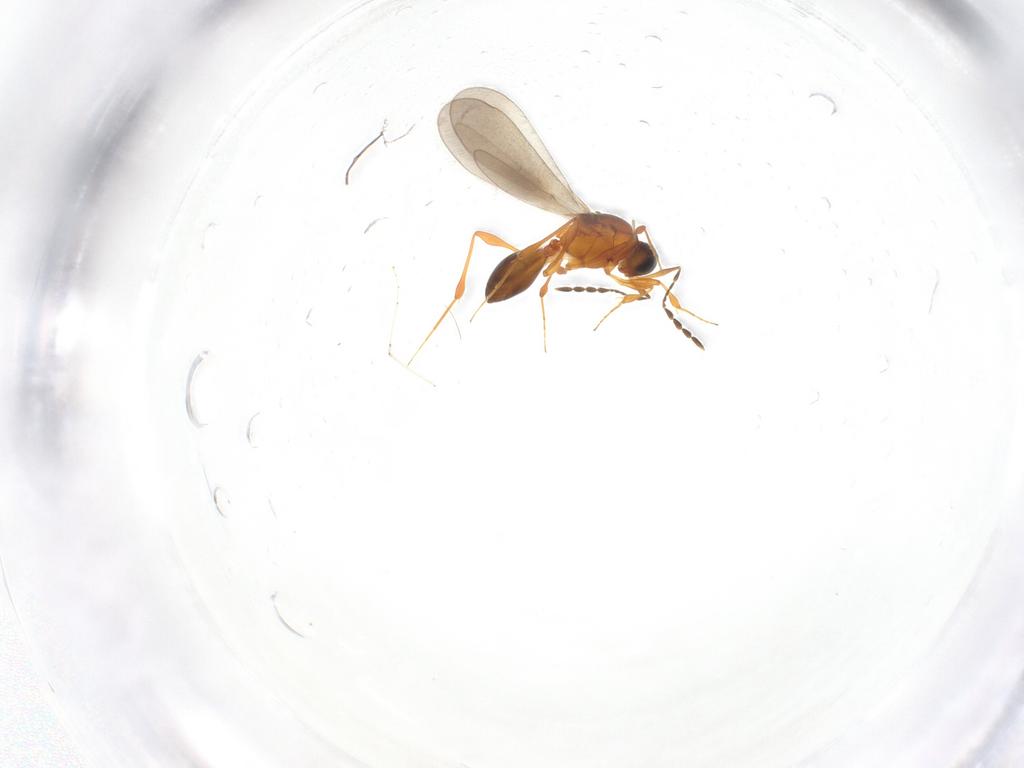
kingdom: Animalia
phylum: Arthropoda
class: Insecta
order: Hymenoptera
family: Platygastridae
